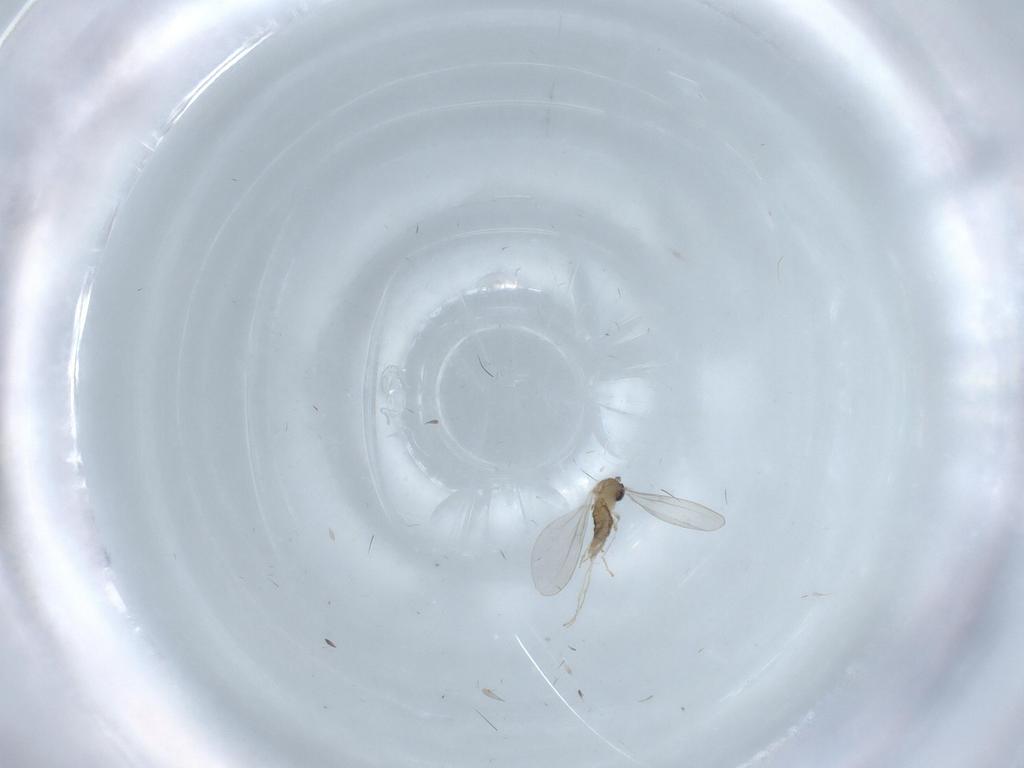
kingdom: Animalia
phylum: Arthropoda
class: Insecta
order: Diptera
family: Cecidomyiidae
